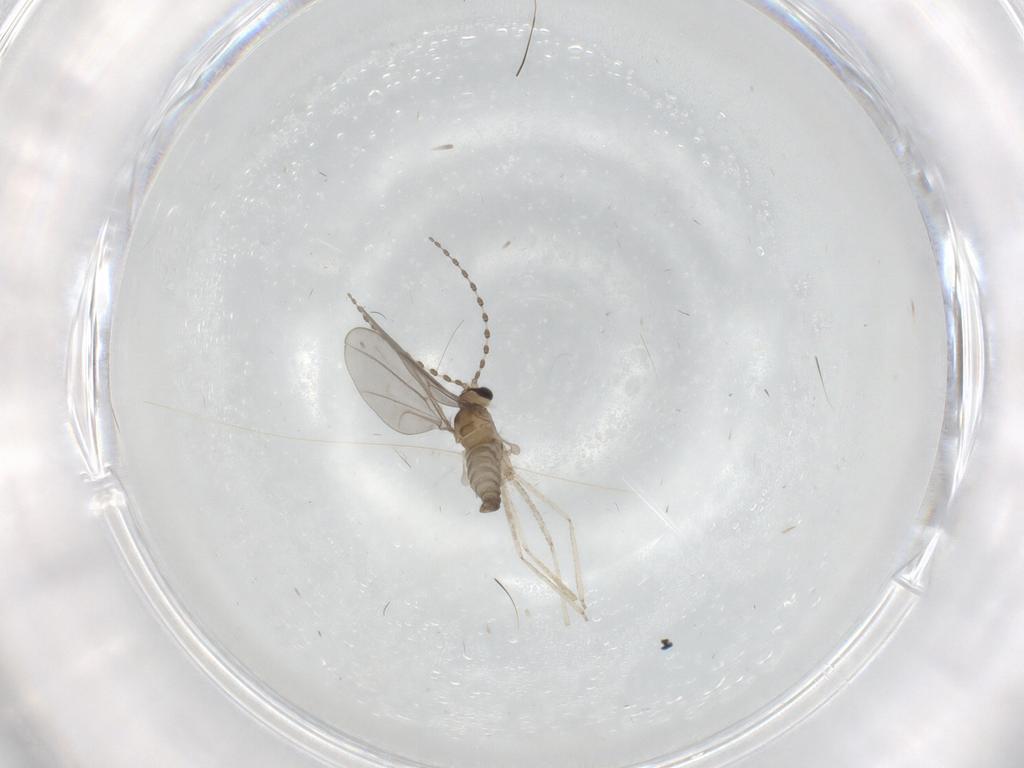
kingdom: Animalia
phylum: Arthropoda
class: Insecta
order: Diptera
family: Cecidomyiidae
